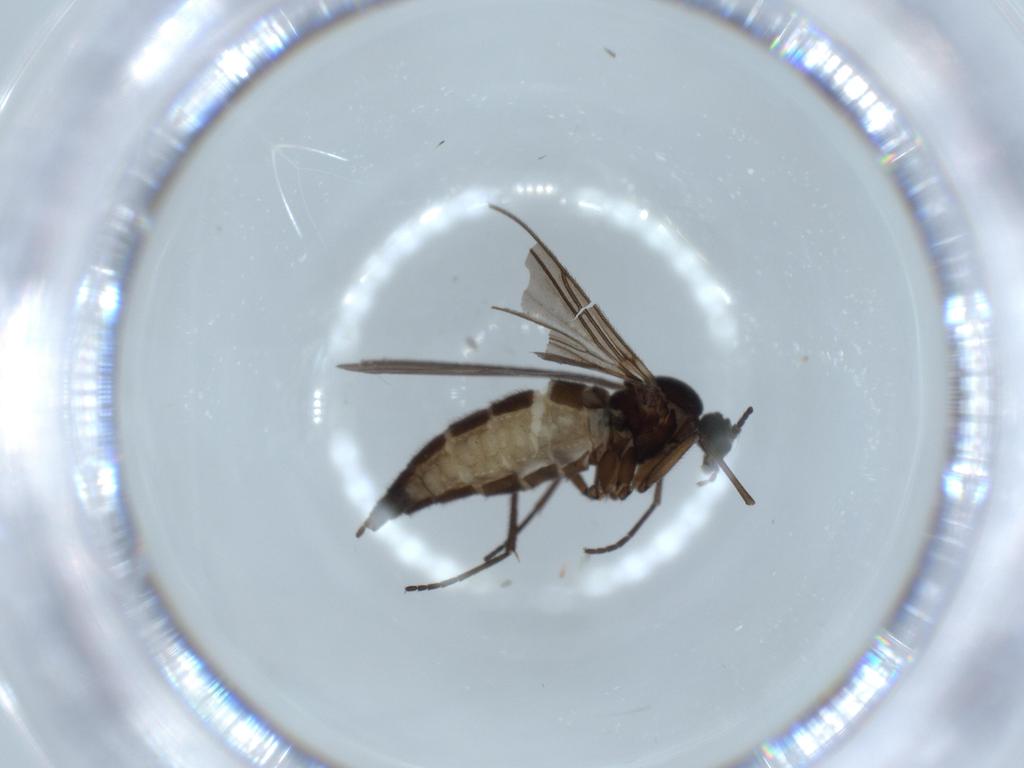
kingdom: Animalia
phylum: Arthropoda
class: Insecta
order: Diptera
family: Sciaridae
